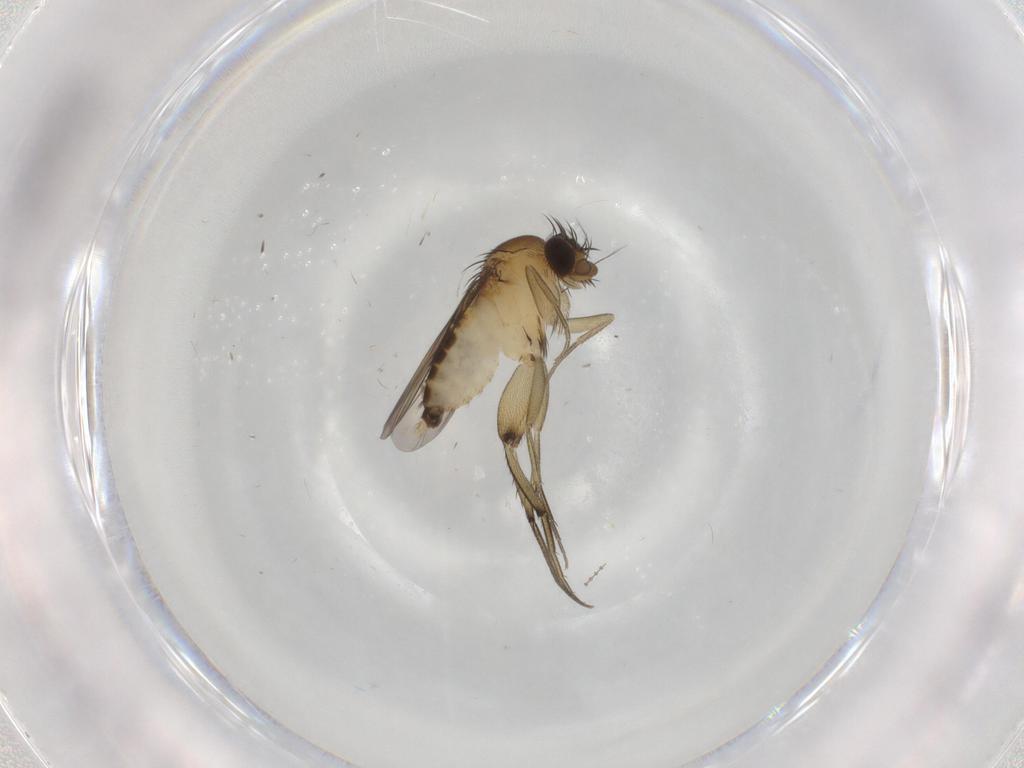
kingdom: Animalia
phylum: Arthropoda
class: Insecta
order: Diptera
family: Phoridae
